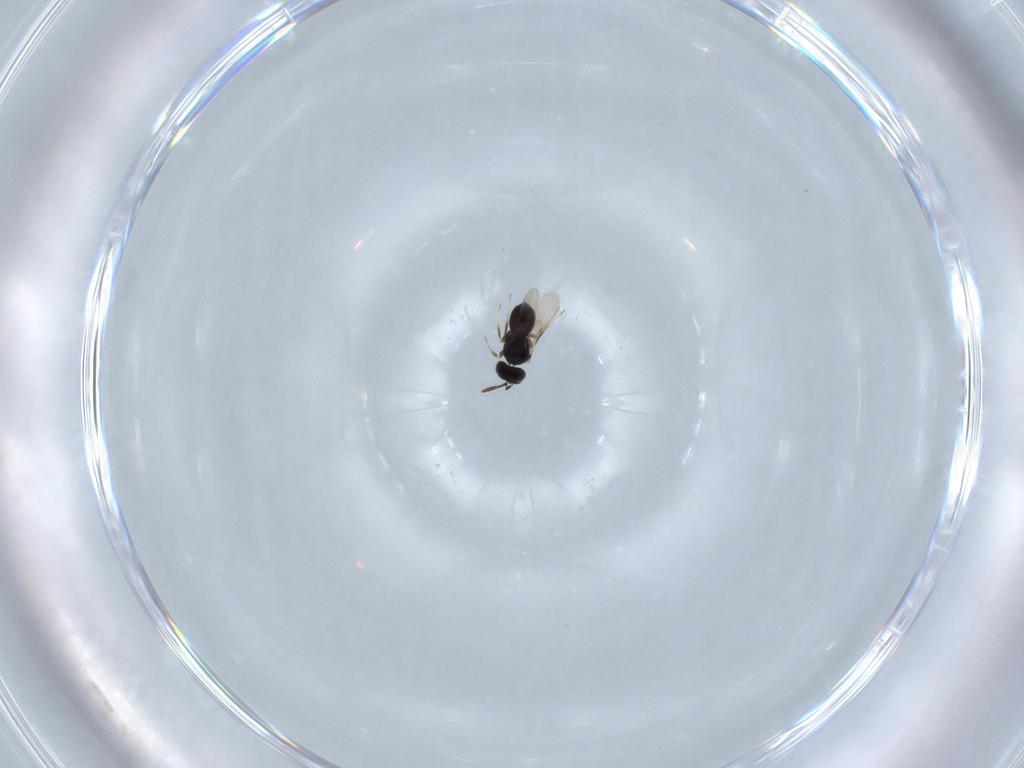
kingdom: Animalia
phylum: Arthropoda
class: Insecta
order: Hymenoptera
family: Scelionidae
